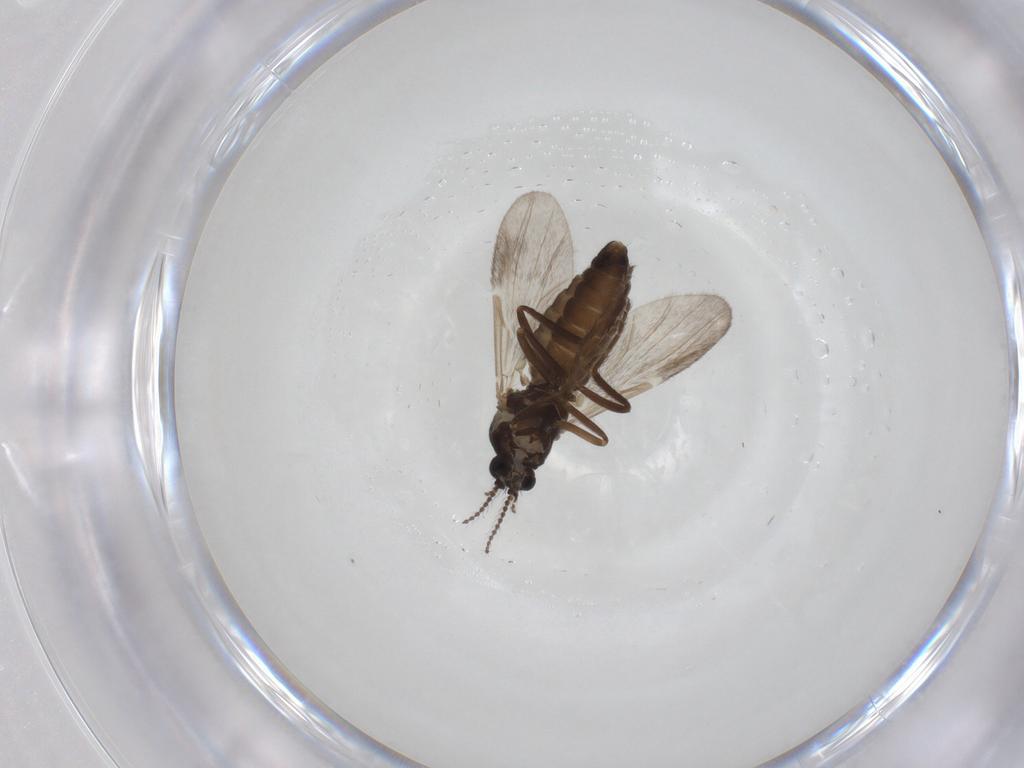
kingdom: Animalia
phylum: Arthropoda
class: Insecta
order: Diptera
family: Ceratopogonidae
